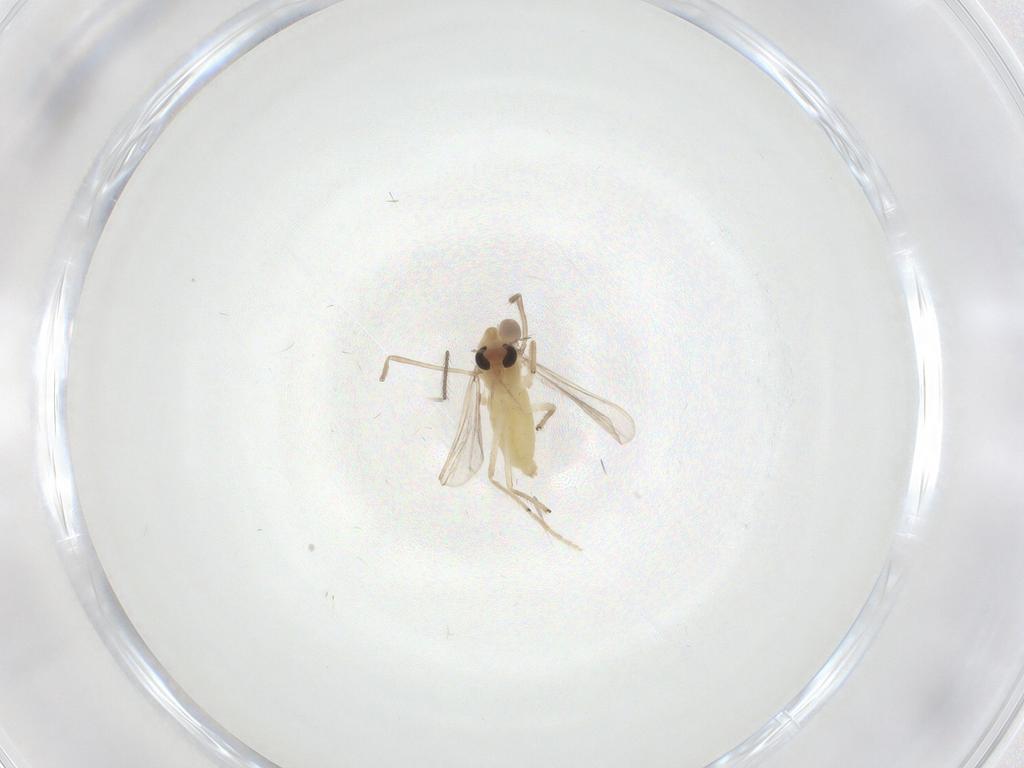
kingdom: Animalia
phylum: Arthropoda
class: Insecta
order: Diptera
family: Chironomidae
